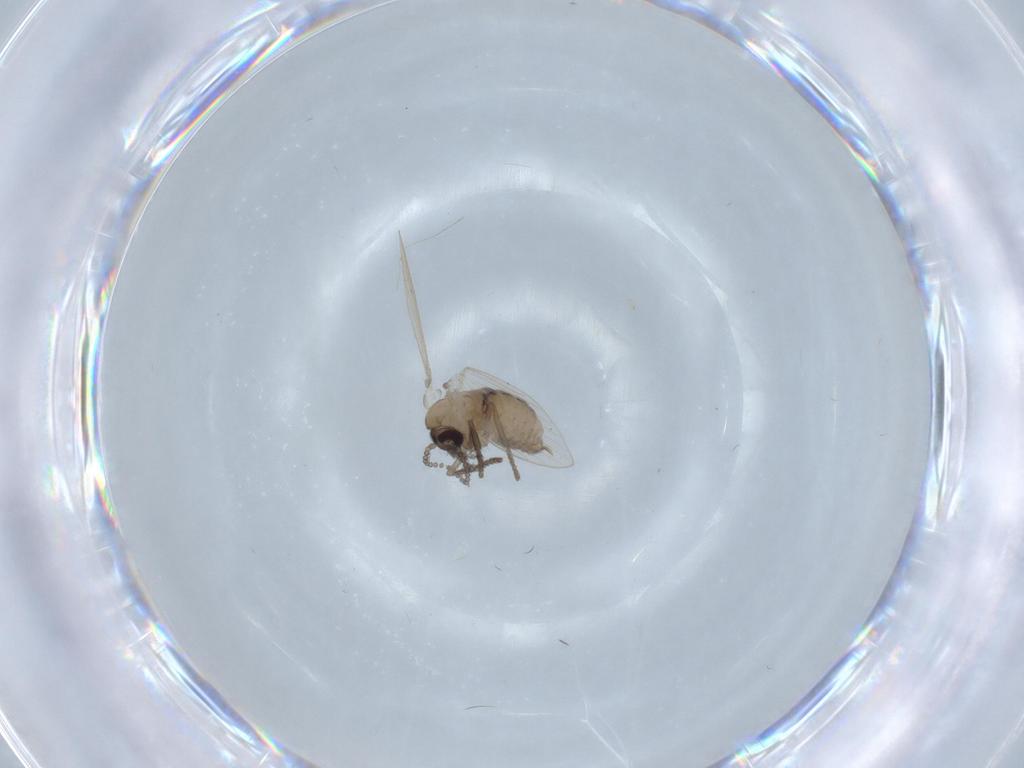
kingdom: Animalia
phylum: Arthropoda
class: Insecta
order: Diptera
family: Psychodidae
